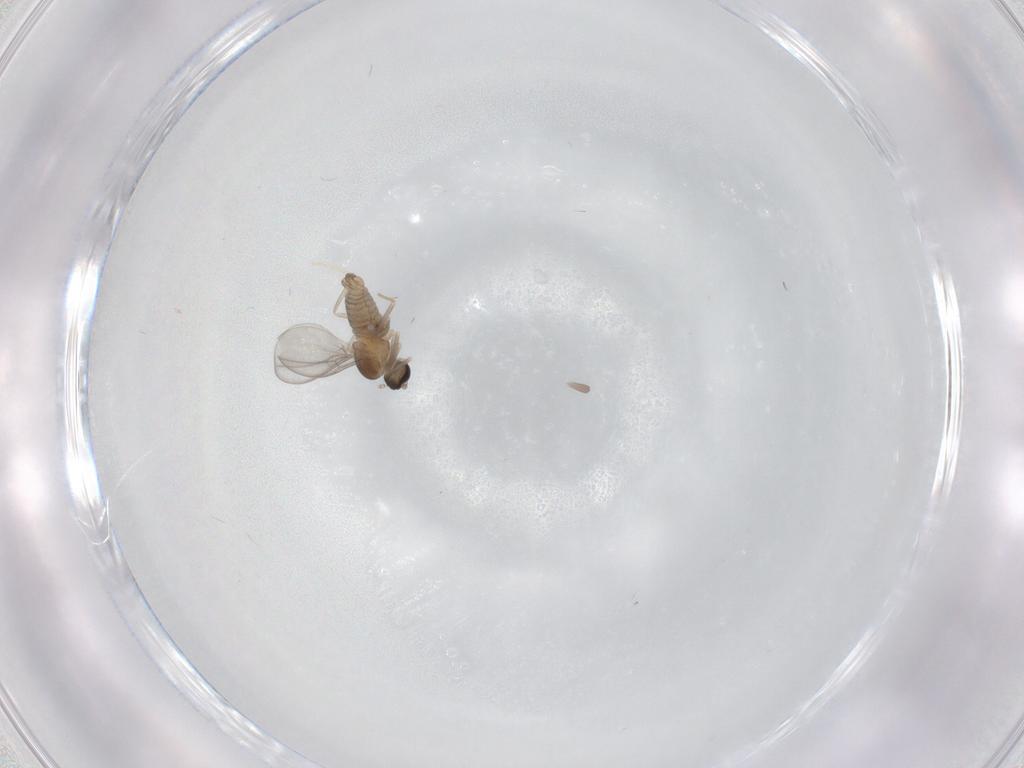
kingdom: Animalia
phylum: Arthropoda
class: Insecta
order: Diptera
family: Cecidomyiidae
